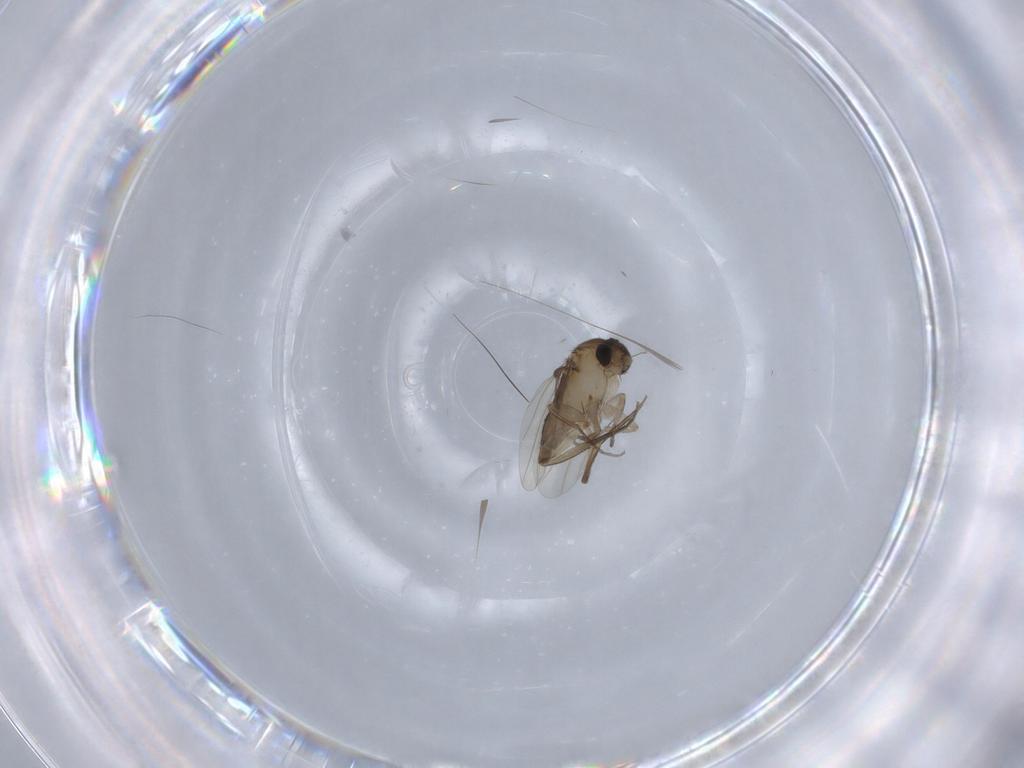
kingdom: Animalia
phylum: Arthropoda
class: Insecta
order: Diptera
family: Phoridae
